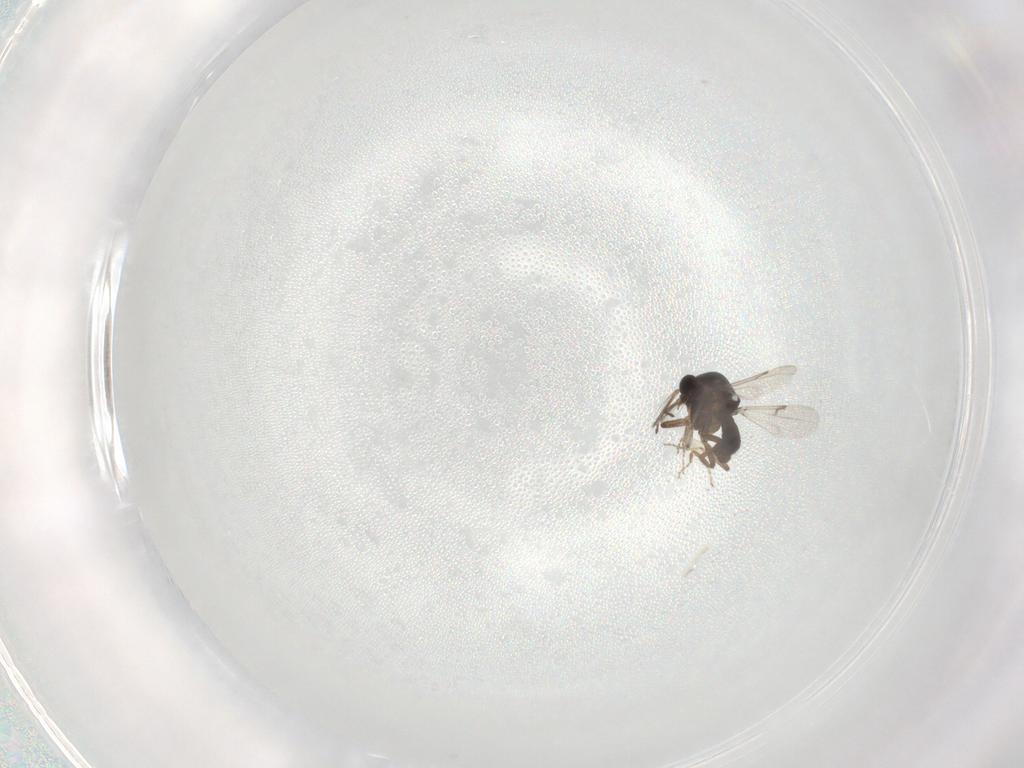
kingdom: Animalia
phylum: Arthropoda
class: Insecta
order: Diptera
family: Ceratopogonidae
